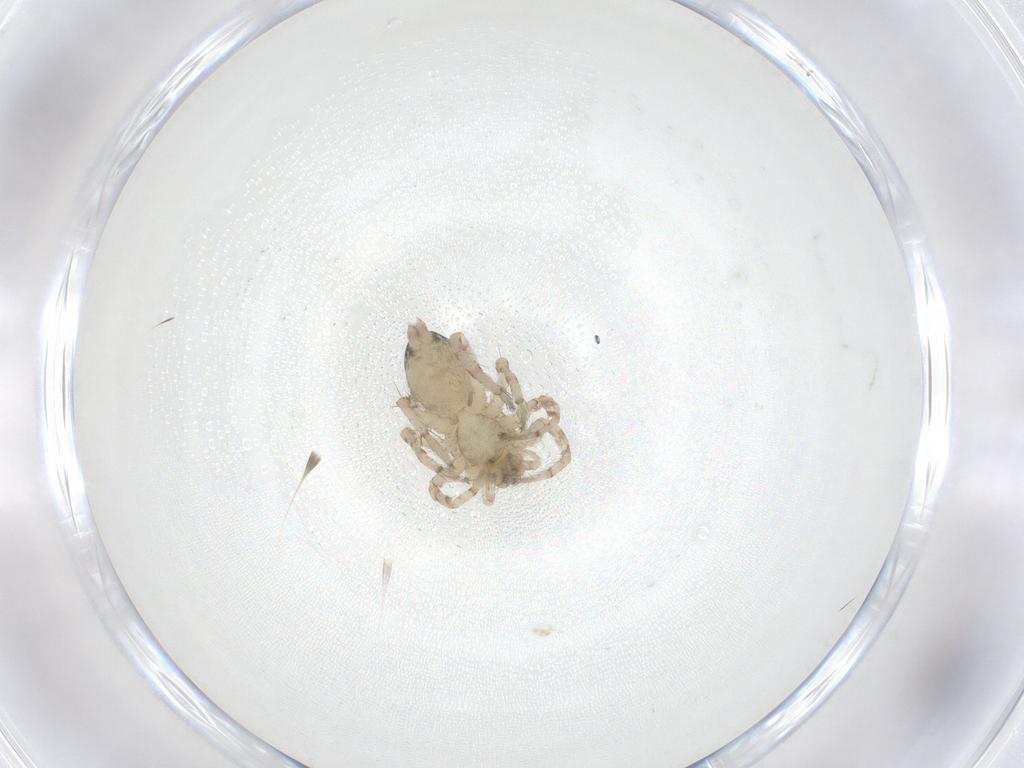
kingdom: Animalia
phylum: Arthropoda
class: Arachnida
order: Araneae
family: Anyphaenidae
